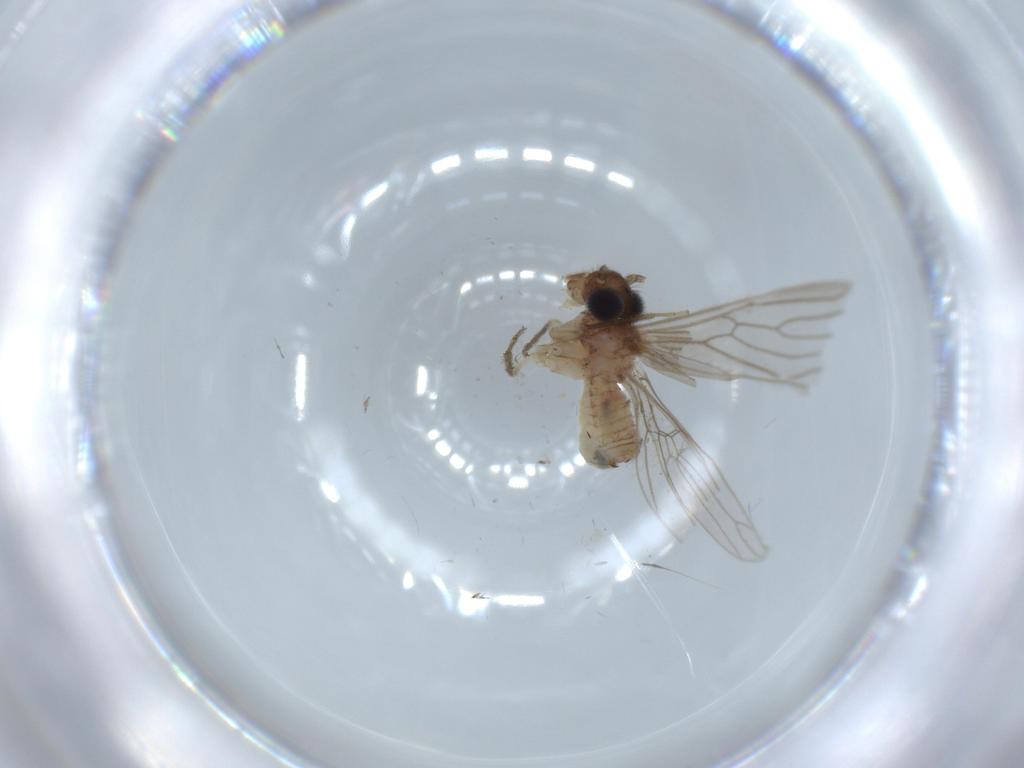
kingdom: Animalia
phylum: Arthropoda
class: Insecta
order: Psocodea
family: Cladiopsocidae
